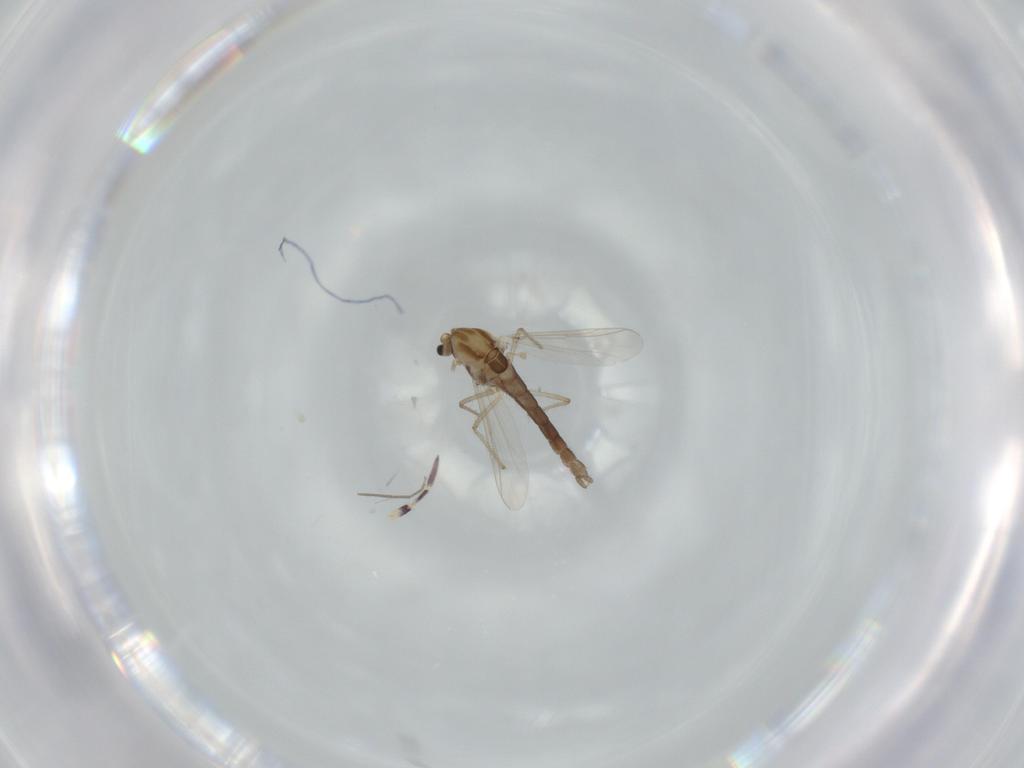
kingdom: Animalia
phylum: Arthropoda
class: Insecta
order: Diptera
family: Chironomidae
